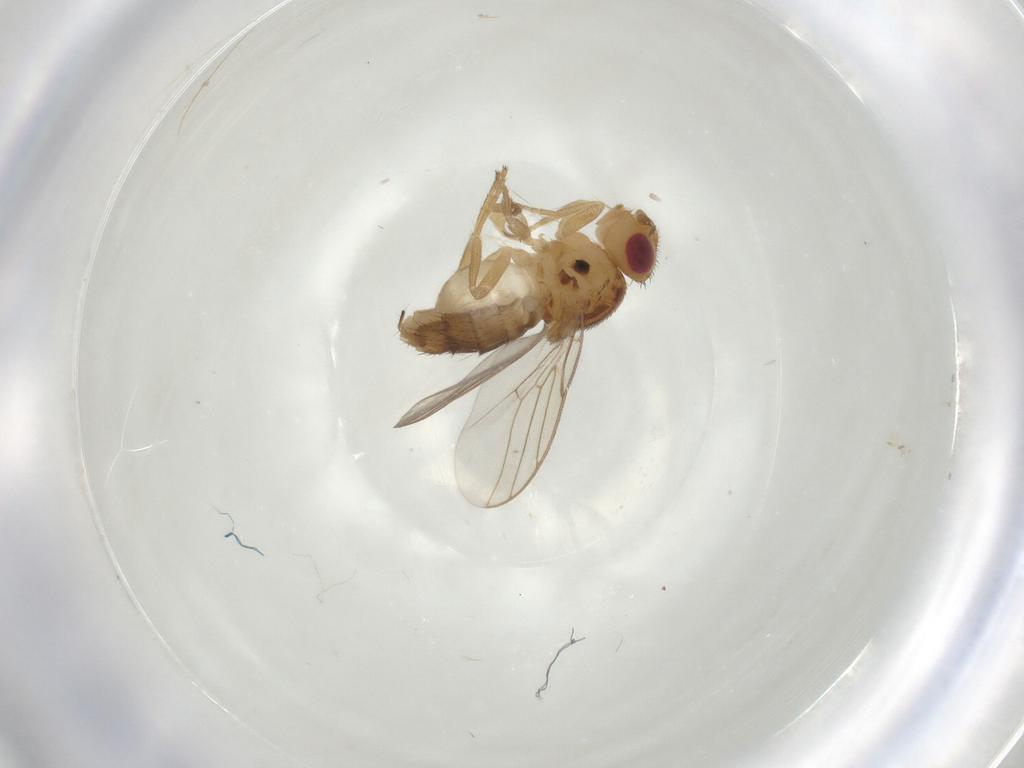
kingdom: Animalia
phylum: Arthropoda
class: Insecta
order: Diptera
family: Chloropidae
